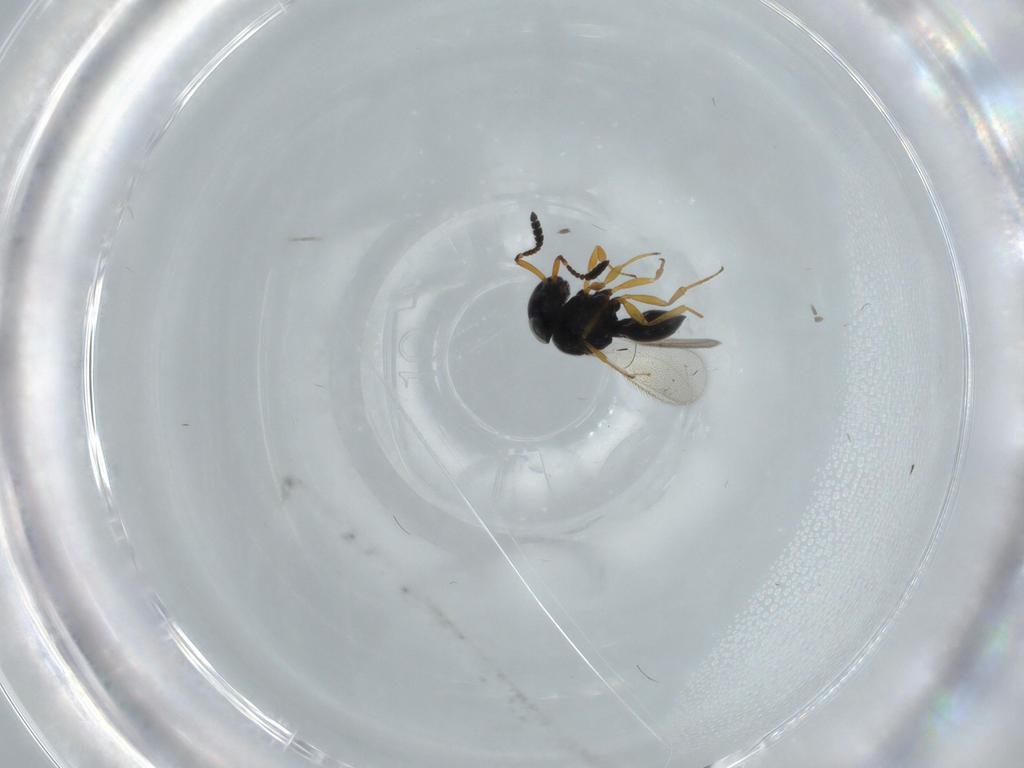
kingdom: Animalia
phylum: Arthropoda
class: Insecta
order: Hymenoptera
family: Scelionidae
